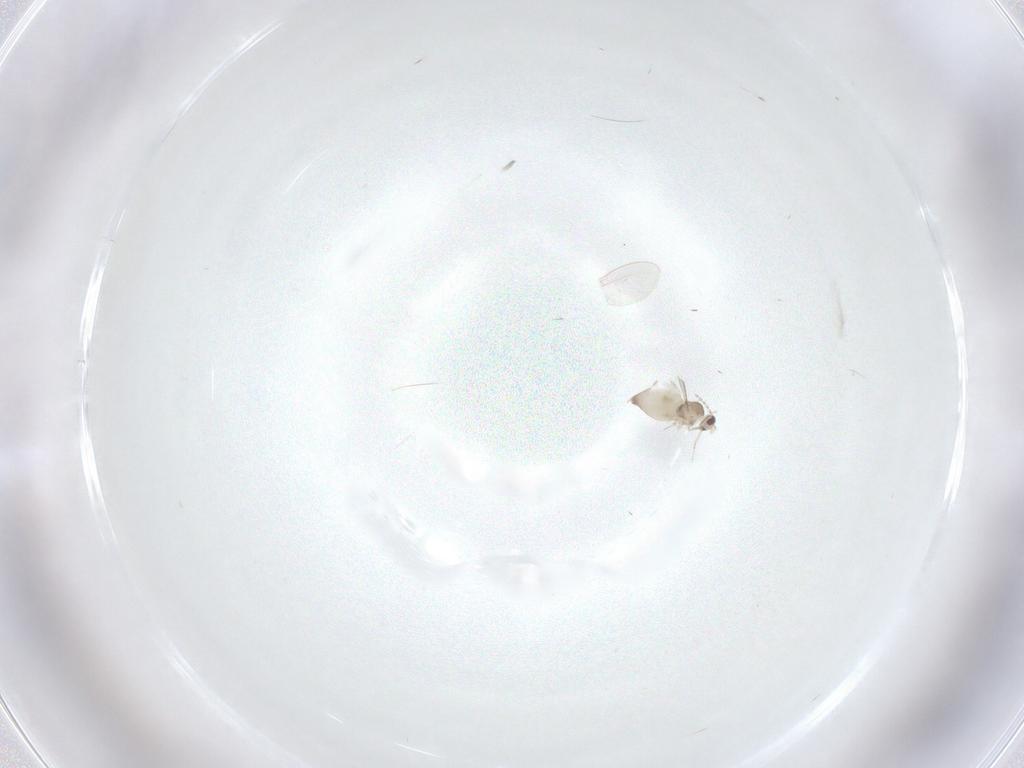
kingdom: Animalia
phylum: Arthropoda
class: Insecta
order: Diptera
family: Cecidomyiidae
